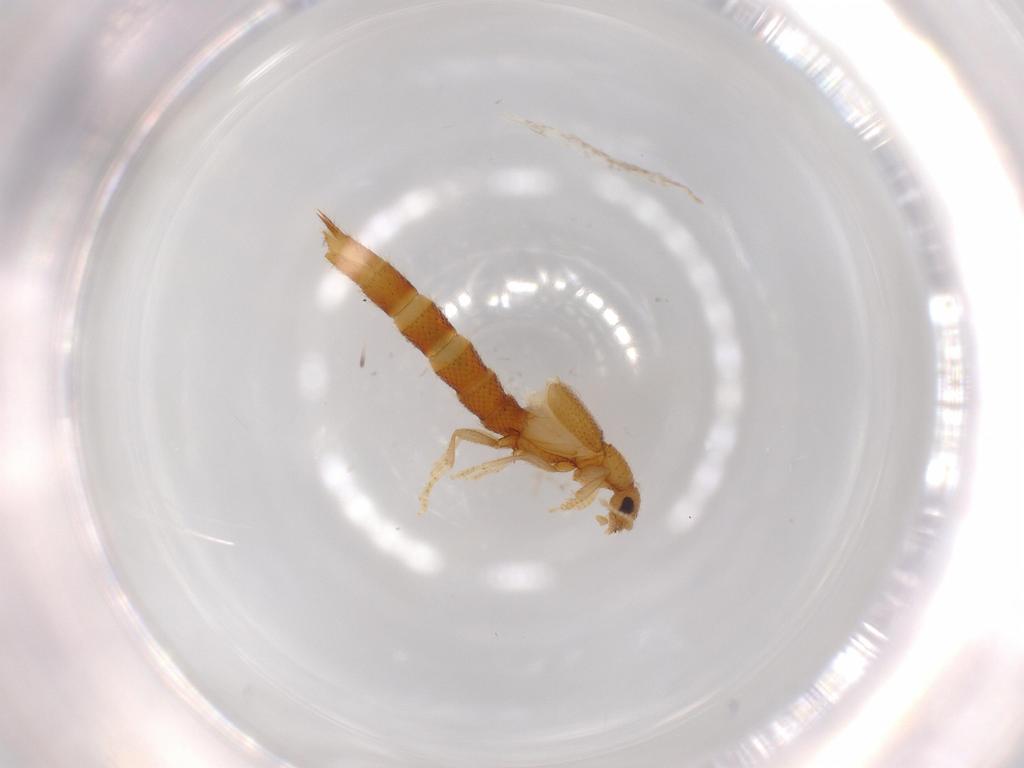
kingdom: Animalia
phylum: Arthropoda
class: Insecta
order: Coleoptera
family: Staphylinidae
